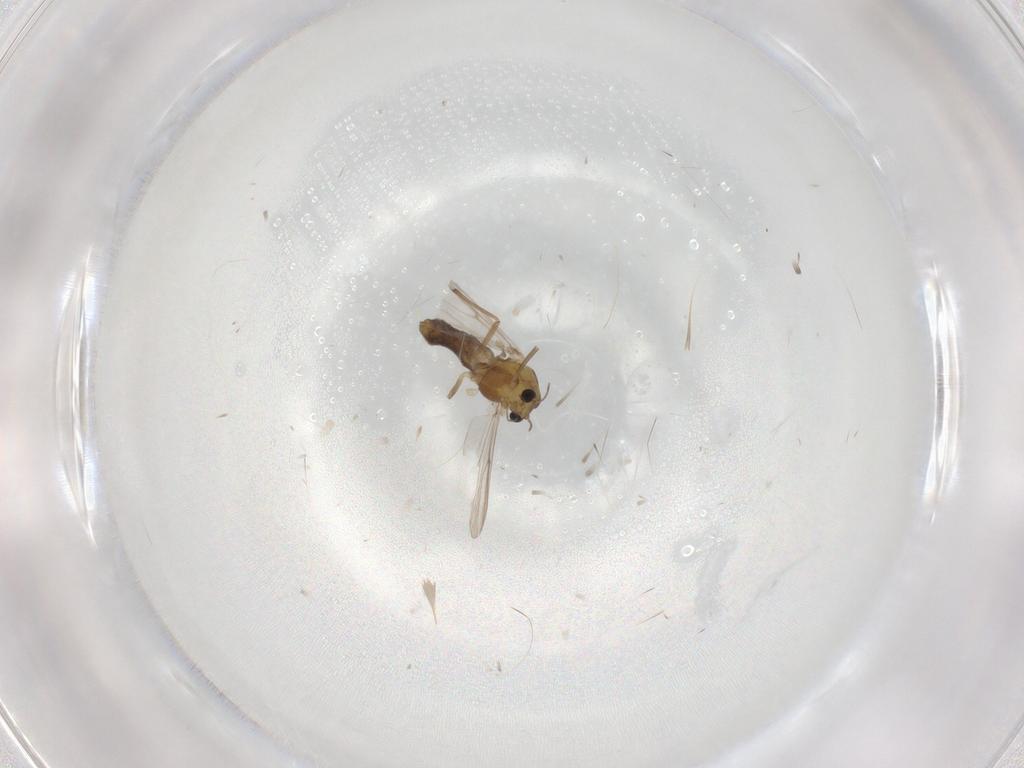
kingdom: Animalia
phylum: Arthropoda
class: Insecta
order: Diptera
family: Chironomidae
